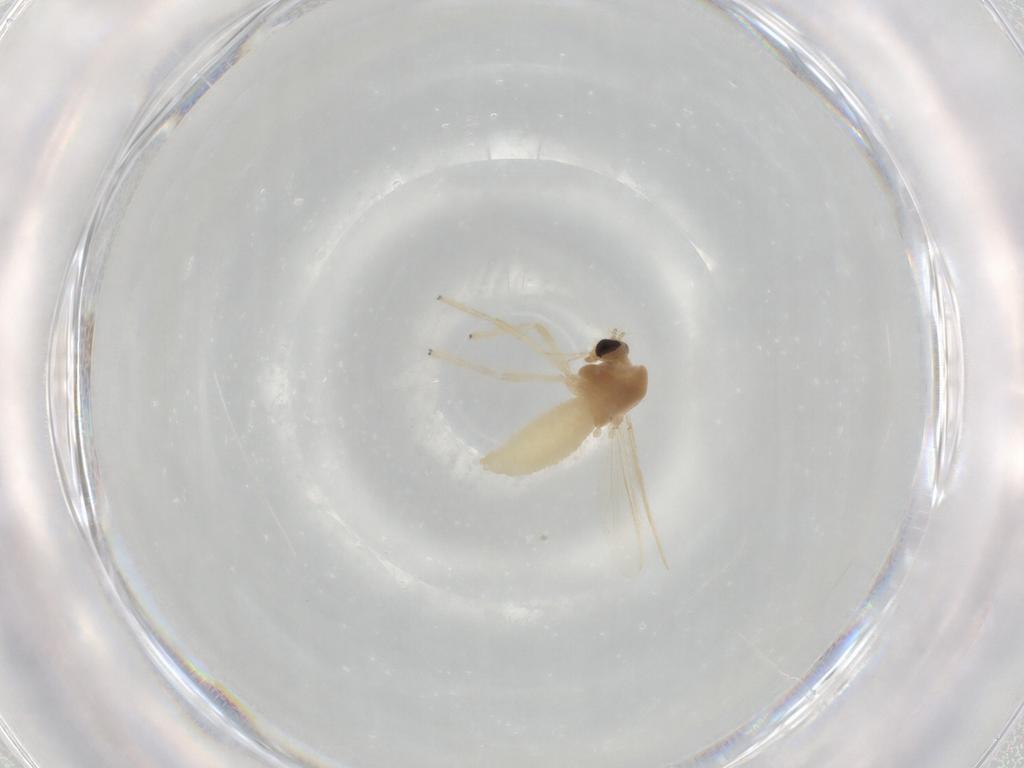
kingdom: Animalia
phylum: Arthropoda
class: Insecta
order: Diptera
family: Chironomidae
